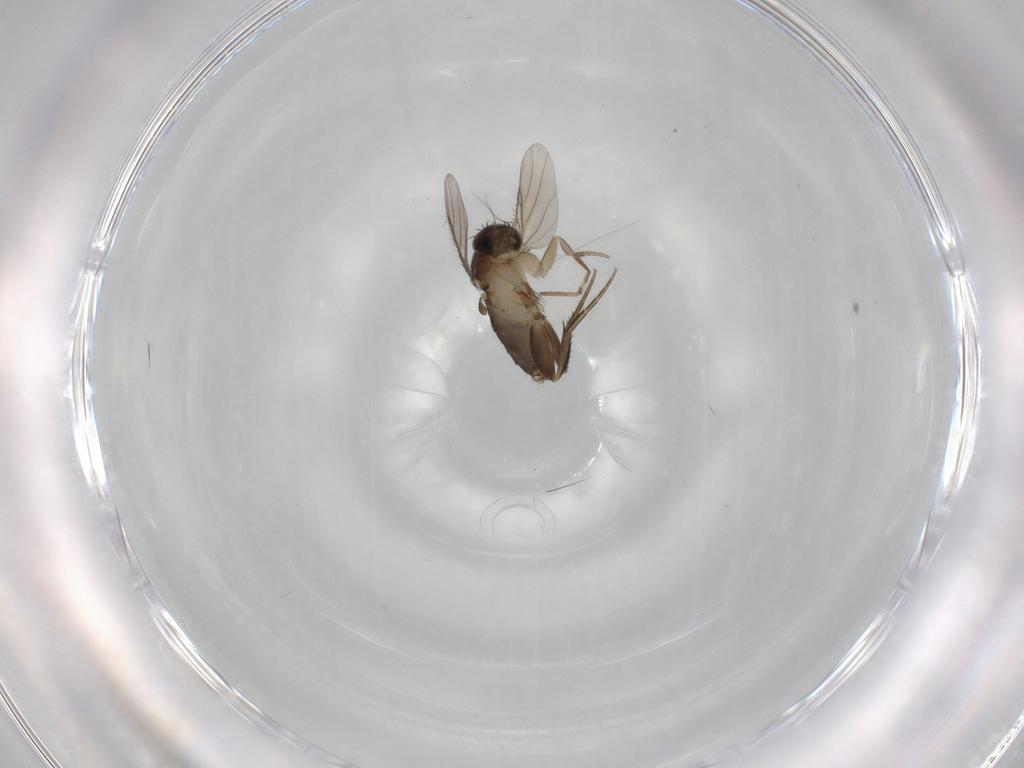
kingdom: Animalia
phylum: Arthropoda
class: Insecta
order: Diptera
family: Phoridae
